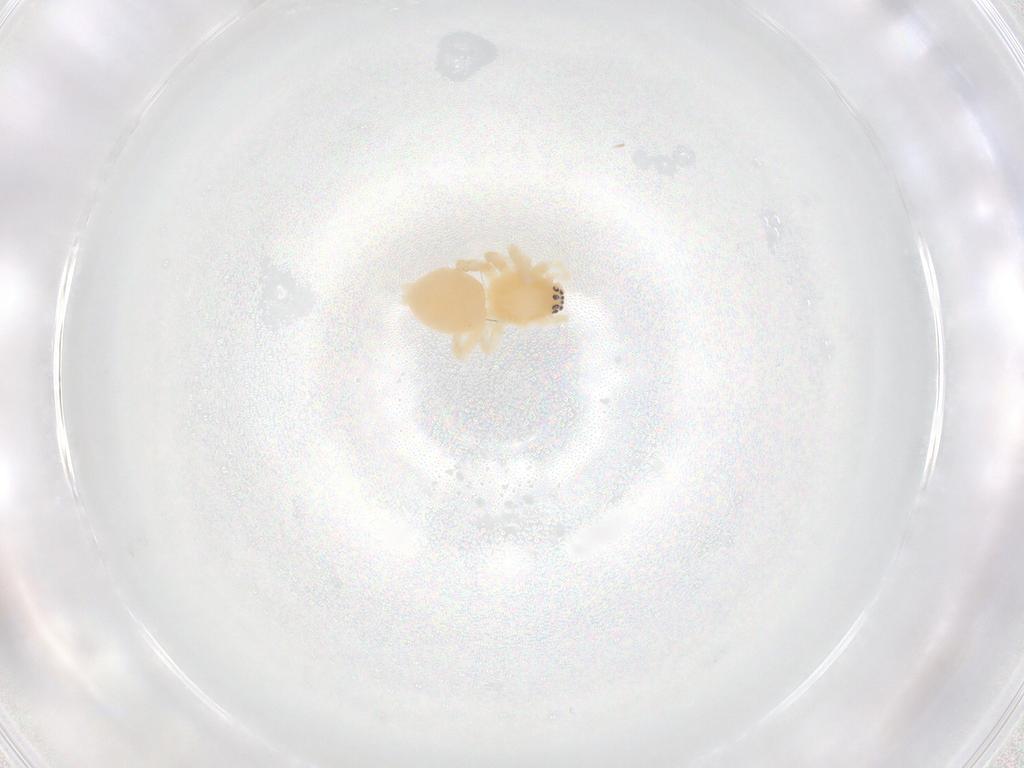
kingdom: Animalia
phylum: Arthropoda
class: Arachnida
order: Araneae
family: Anyphaenidae
